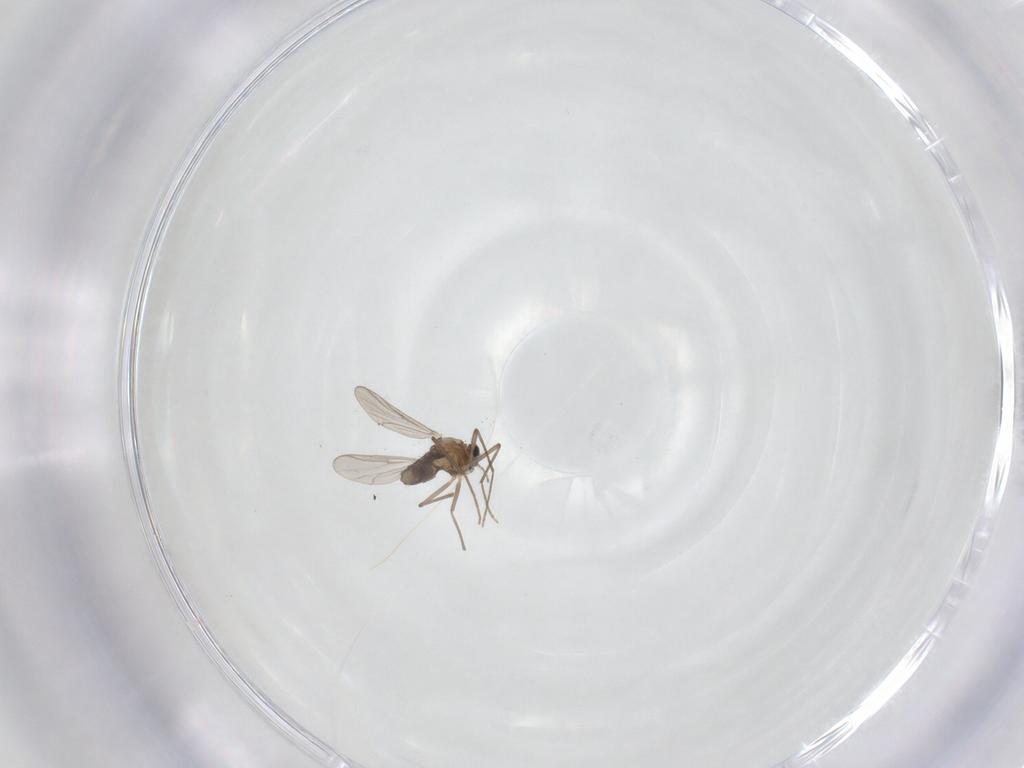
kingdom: Animalia
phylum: Arthropoda
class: Insecta
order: Diptera
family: Chironomidae
